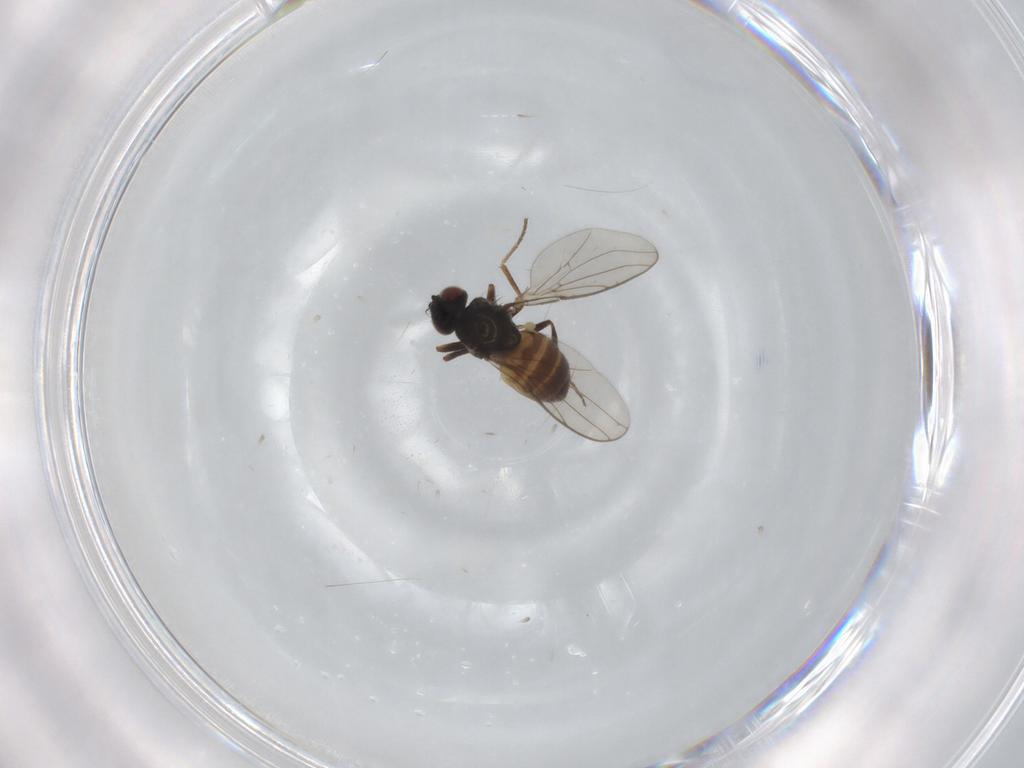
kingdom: Animalia
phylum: Arthropoda
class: Insecta
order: Diptera
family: Chloropidae
